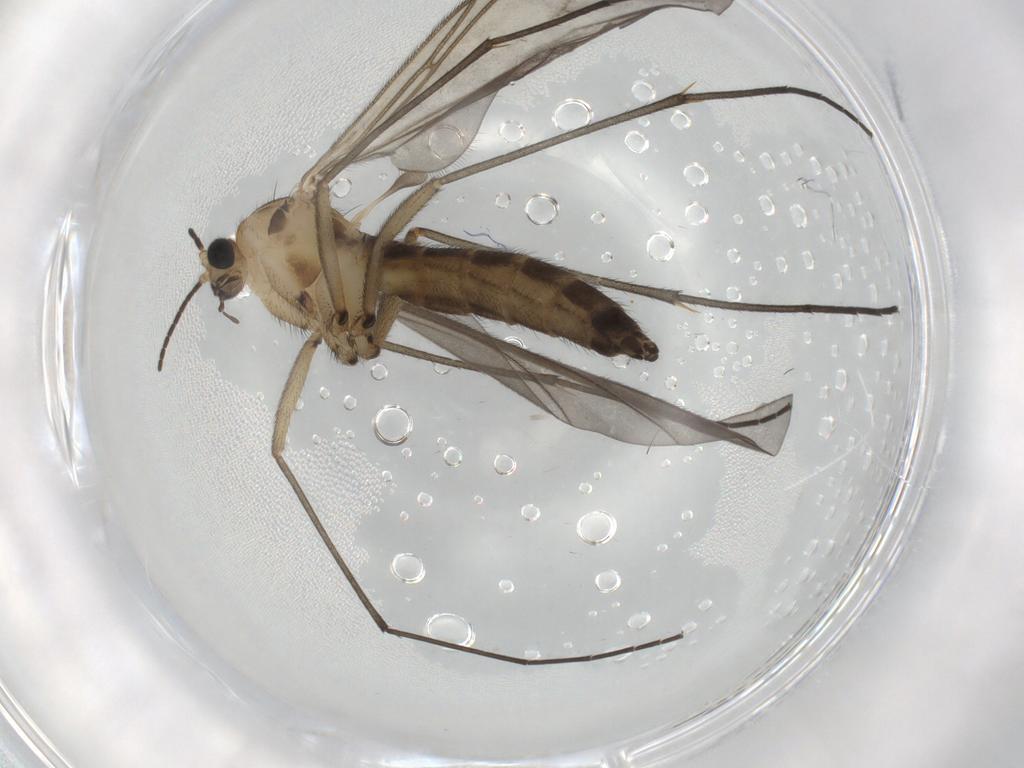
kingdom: Animalia
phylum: Arthropoda
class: Insecta
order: Diptera
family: Sciaridae
